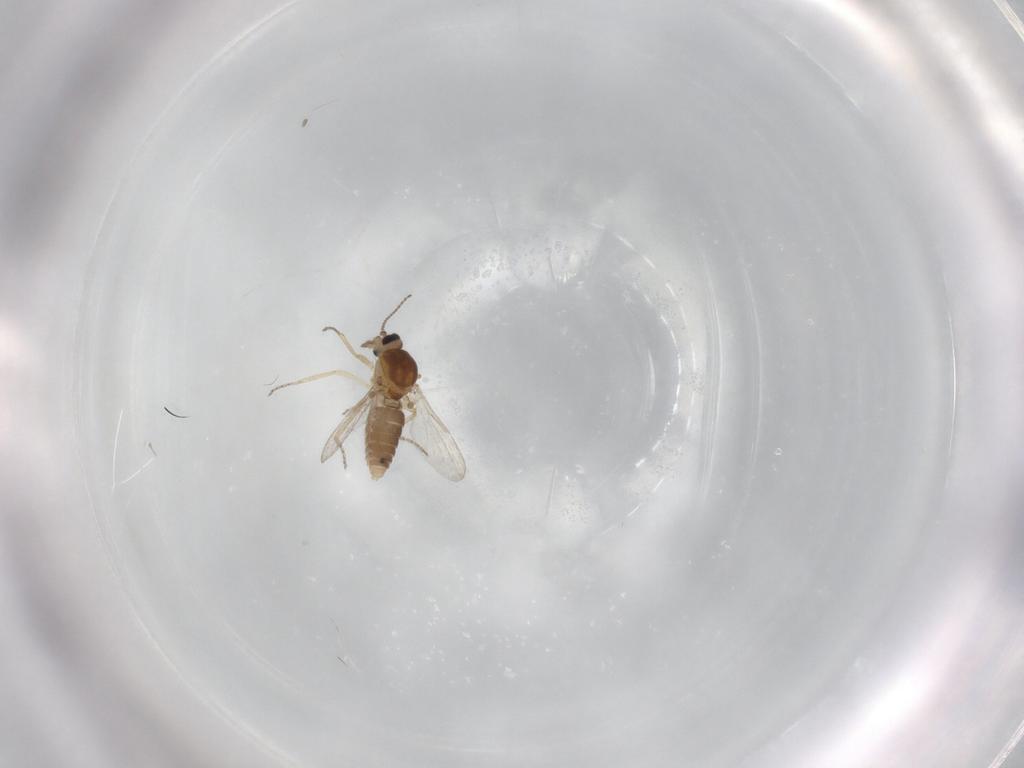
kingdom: Animalia
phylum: Arthropoda
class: Insecta
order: Diptera
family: Ceratopogonidae
